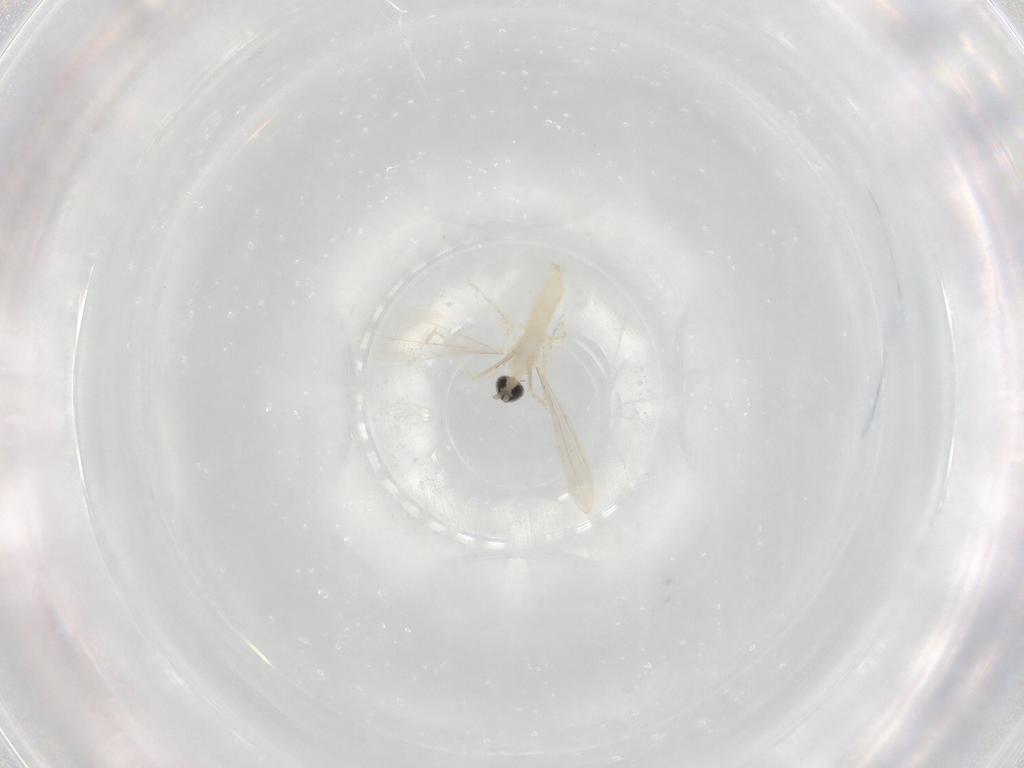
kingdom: Animalia
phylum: Arthropoda
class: Insecta
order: Diptera
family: Cecidomyiidae
